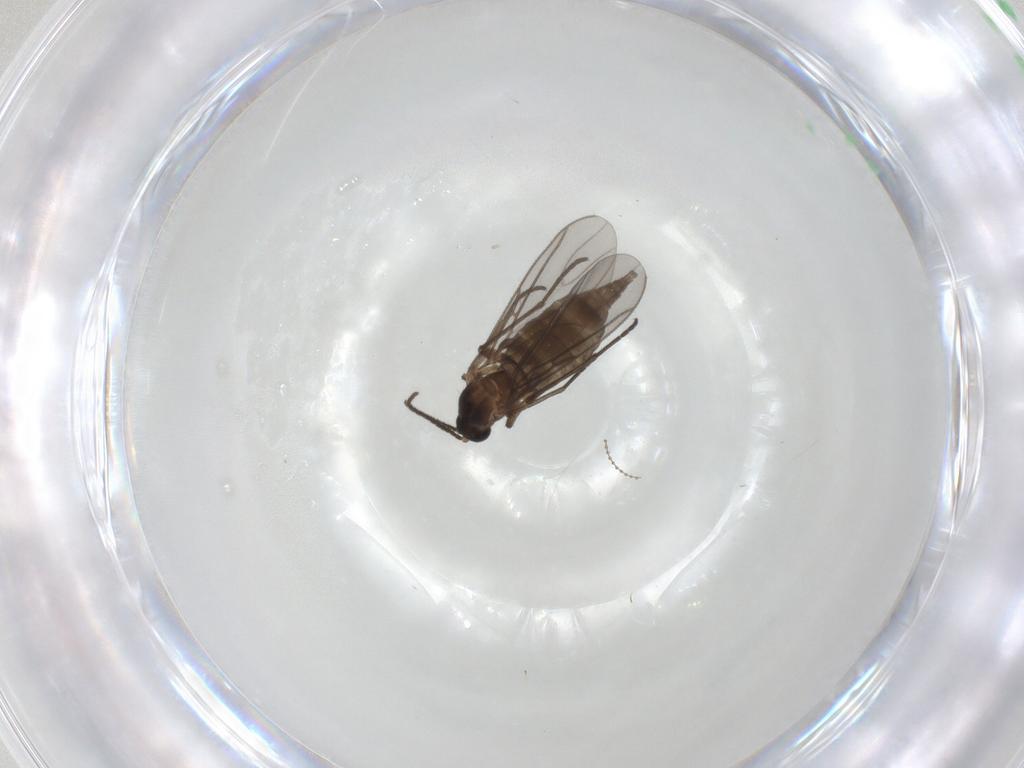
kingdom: Animalia
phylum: Arthropoda
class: Insecta
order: Diptera
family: Sciaridae
